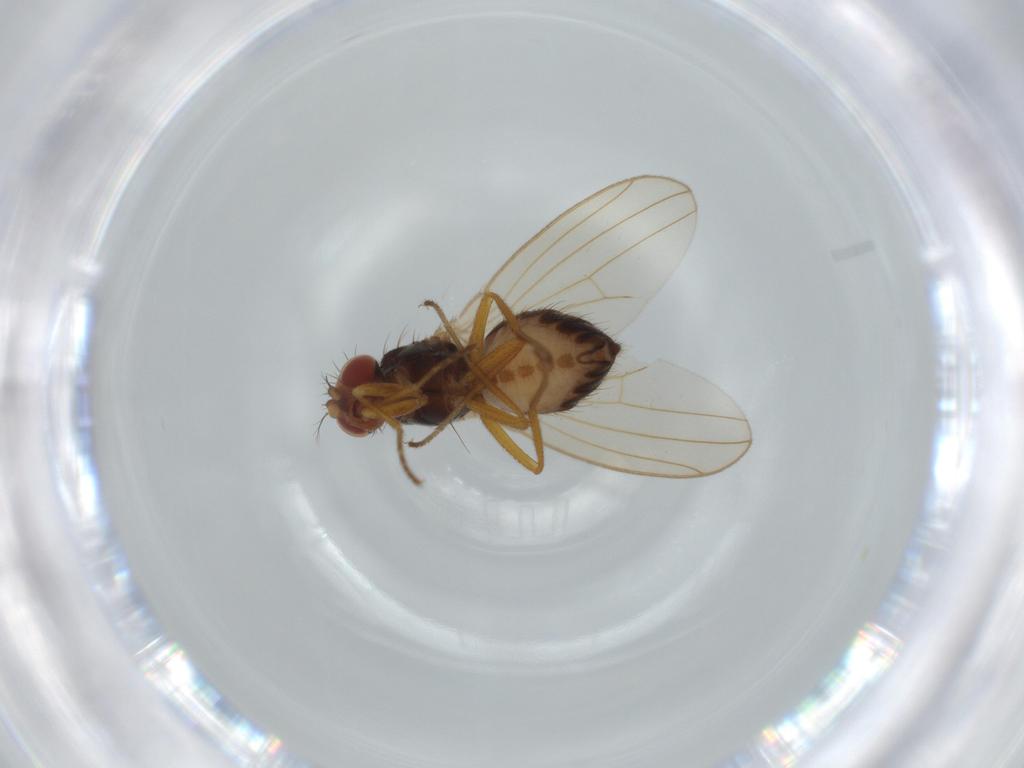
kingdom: Animalia
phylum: Arthropoda
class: Insecta
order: Diptera
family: Drosophilidae
